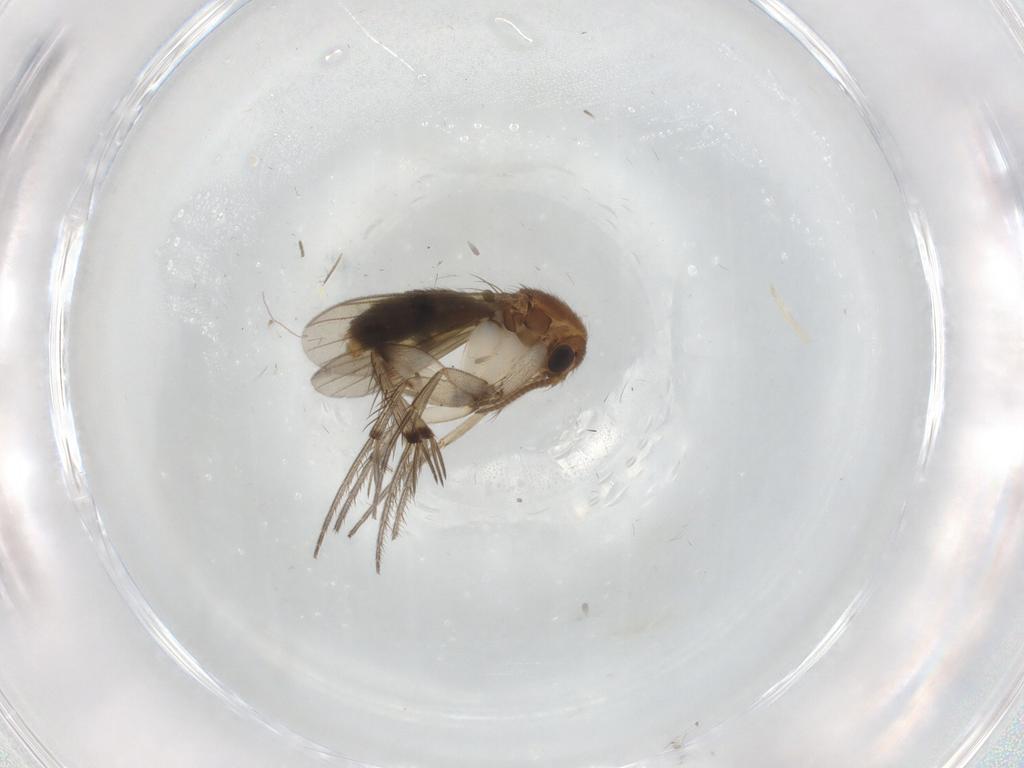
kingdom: Animalia
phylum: Arthropoda
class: Insecta
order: Diptera
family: Mycetophilidae
